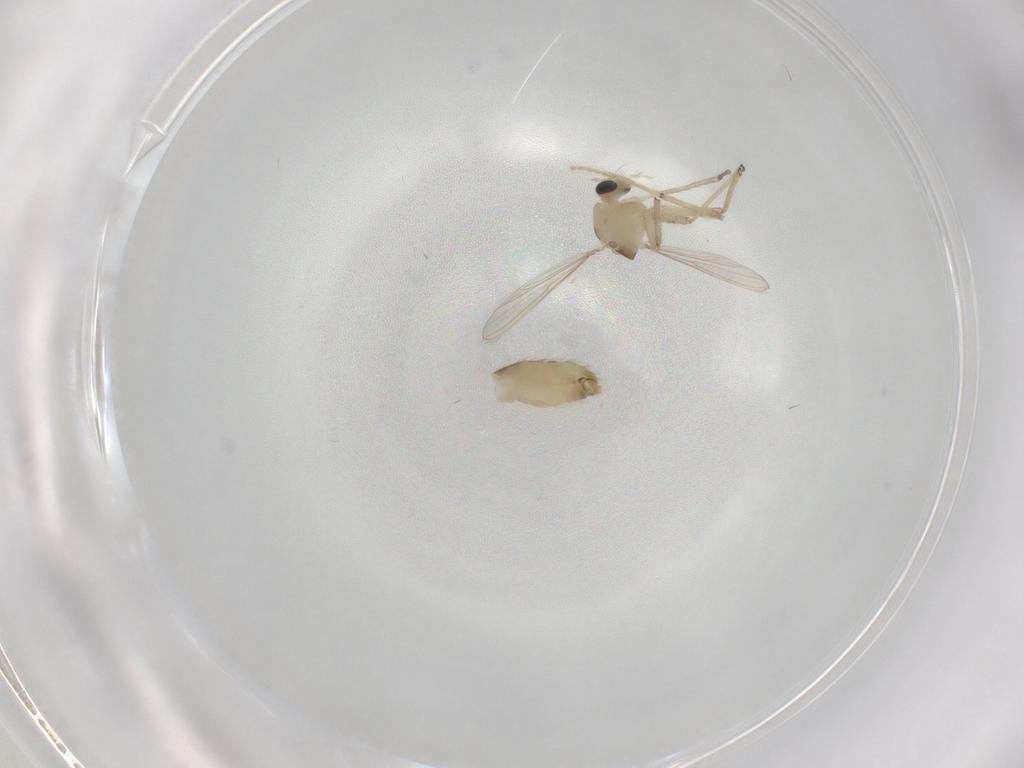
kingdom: Animalia
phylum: Arthropoda
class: Insecta
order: Diptera
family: Chironomidae
